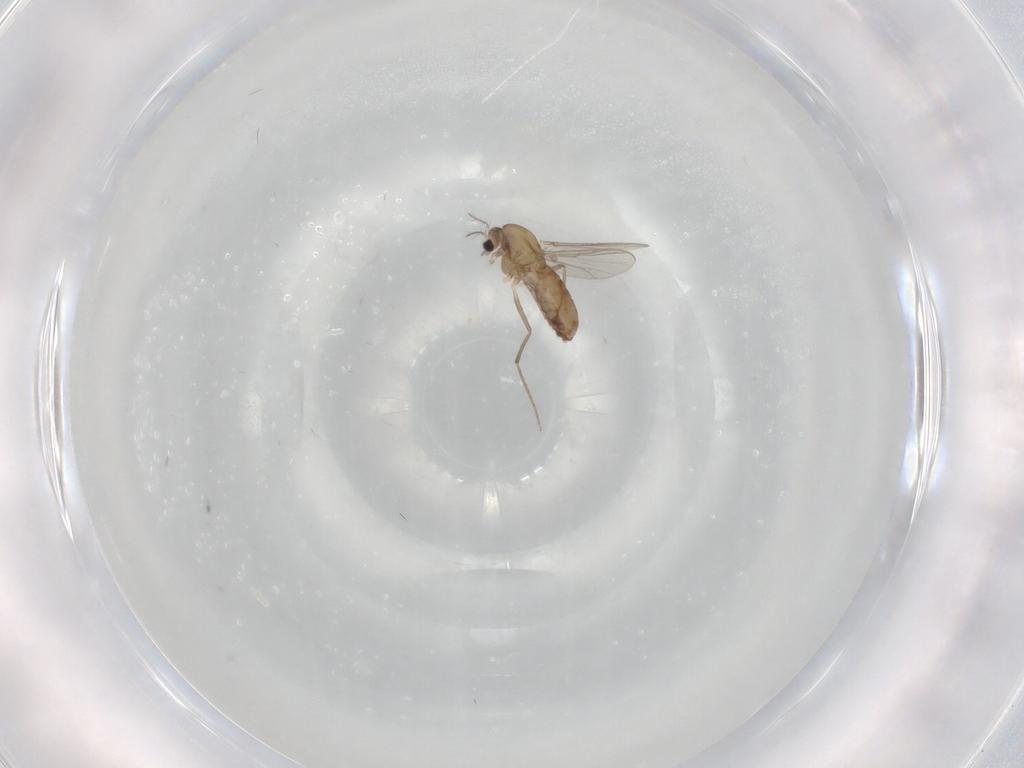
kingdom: Animalia
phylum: Arthropoda
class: Insecta
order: Diptera
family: Chironomidae
